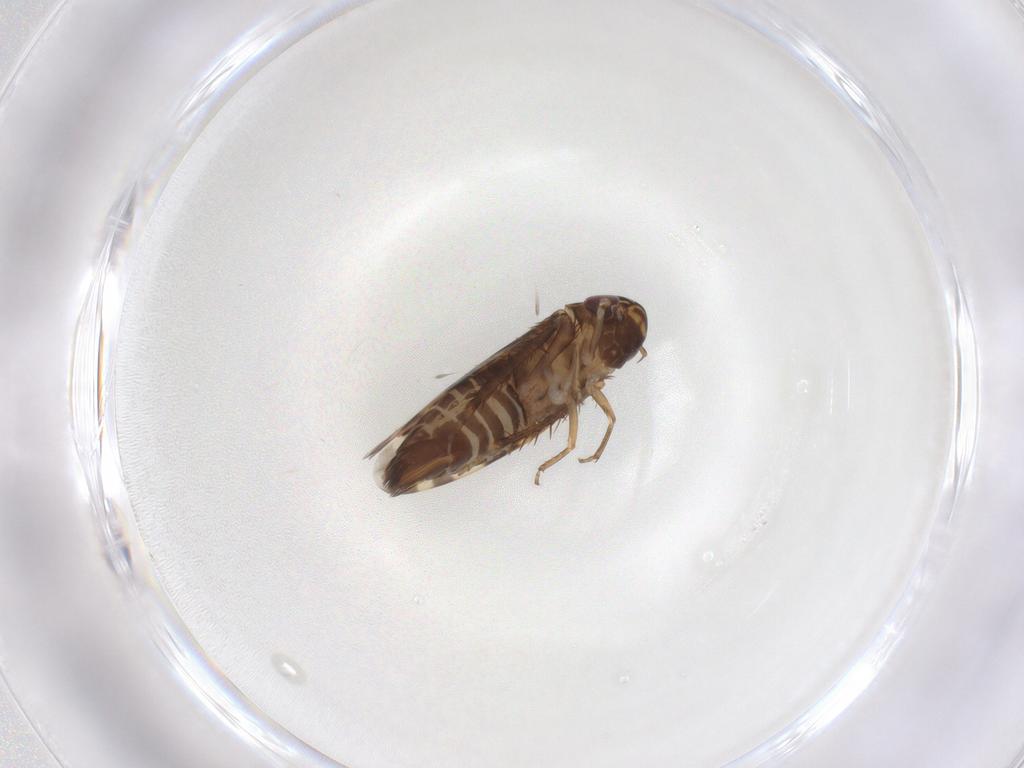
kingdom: Animalia
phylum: Arthropoda
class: Insecta
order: Hemiptera
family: Cicadellidae
